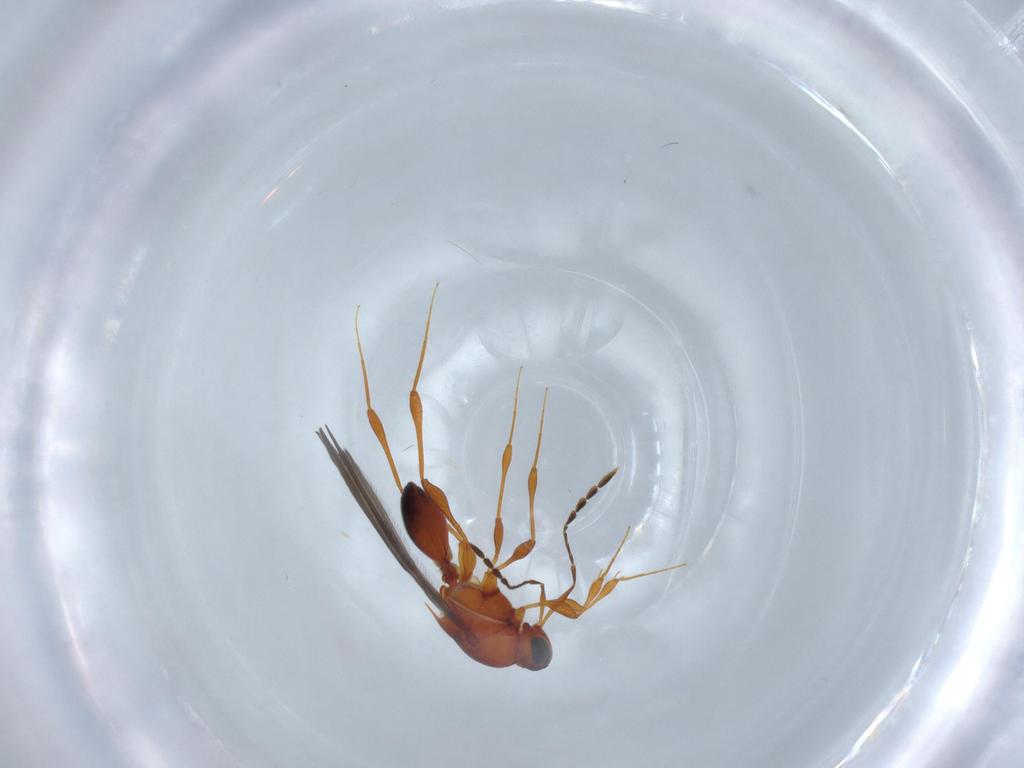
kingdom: Animalia
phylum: Arthropoda
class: Insecta
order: Hymenoptera
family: Platygastridae
